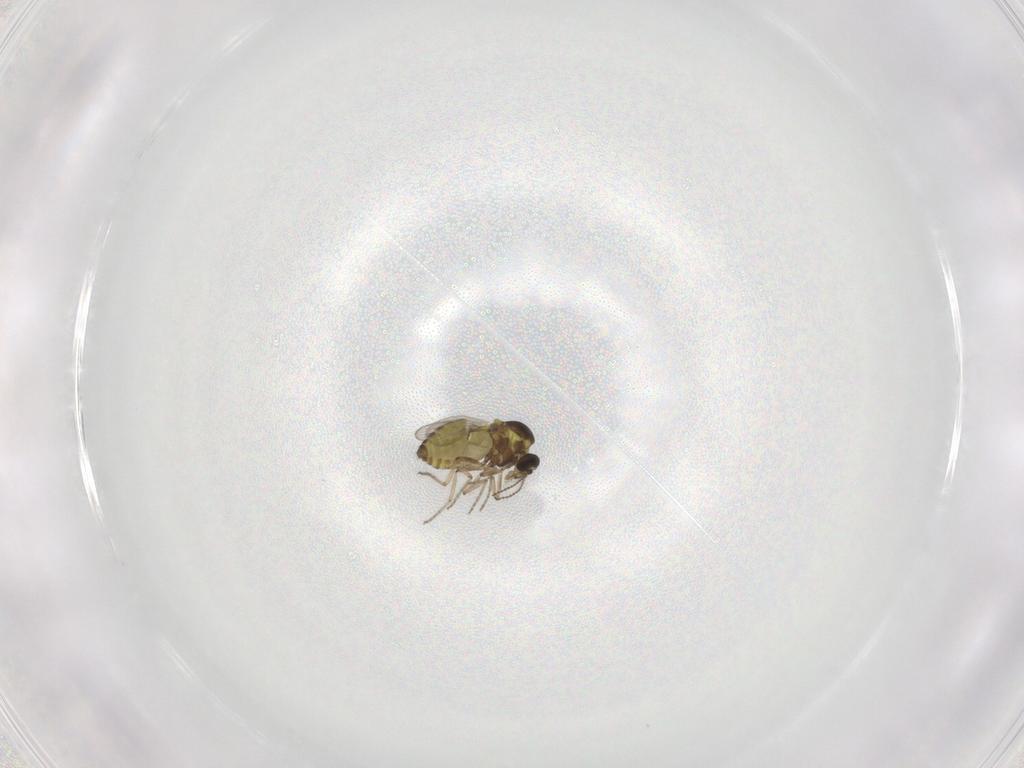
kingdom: Animalia
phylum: Arthropoda
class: Insecta
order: Diptera
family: Ceratopogonidae
